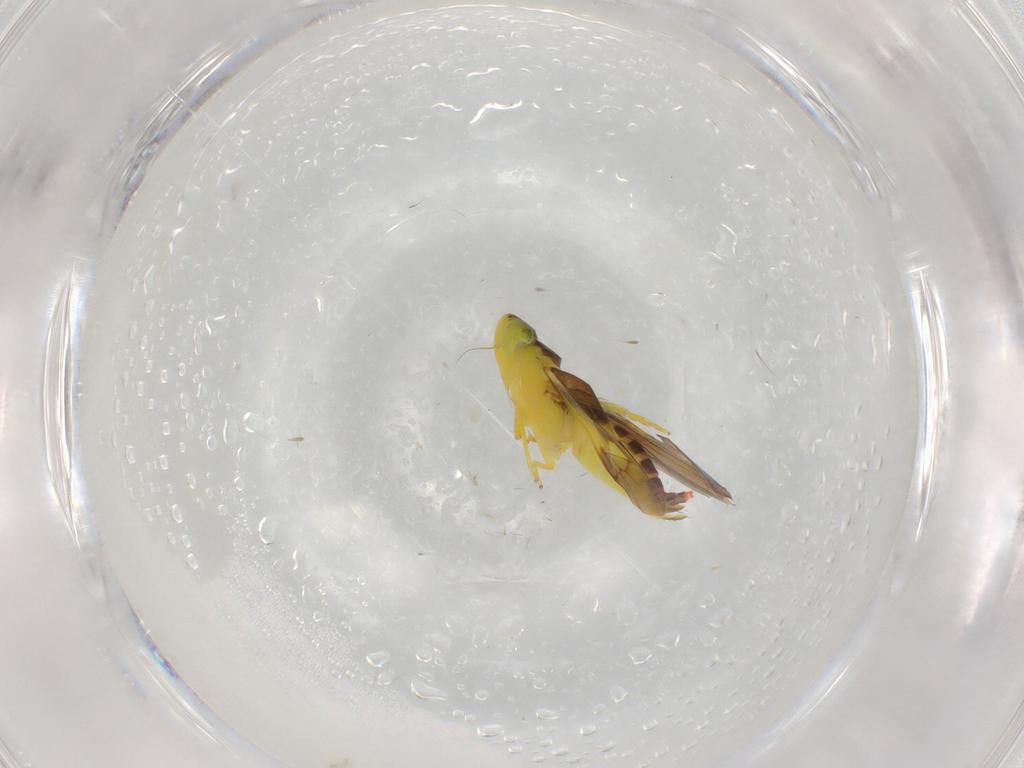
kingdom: Animalia
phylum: Arthropoda
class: Insecta
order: Hemiptera
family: Cicadellidae
